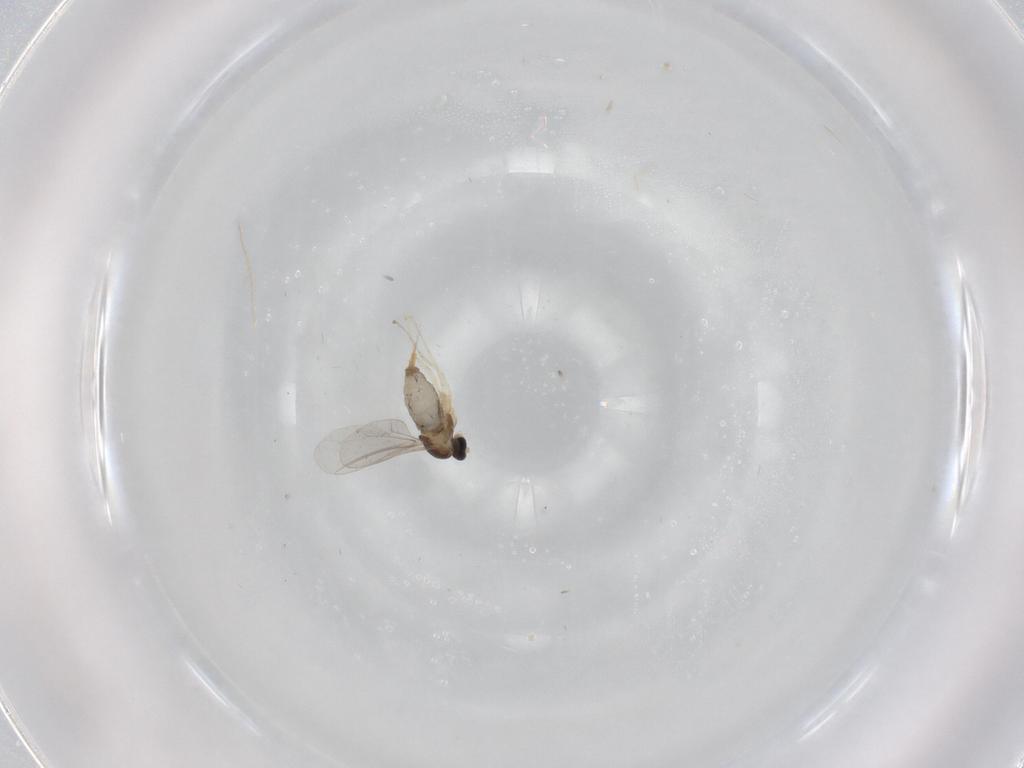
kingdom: Animalia
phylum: Arthropoda
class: Insecta
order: Diptera
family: Cecidomyiidae
